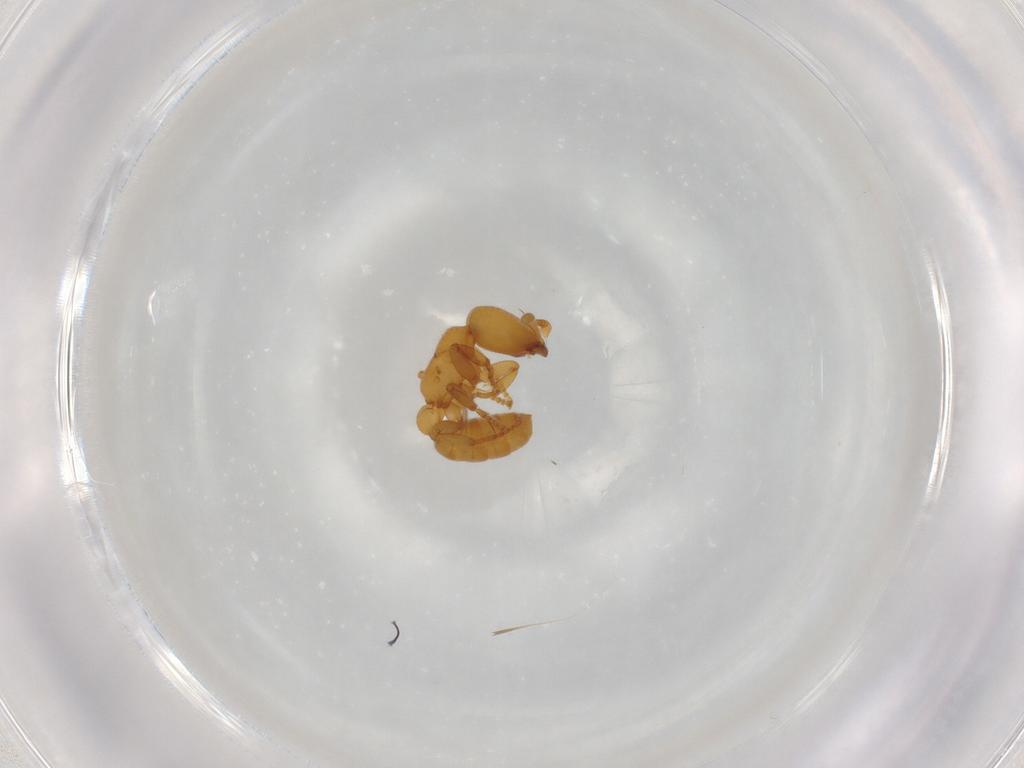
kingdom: Animalia
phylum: Arthropoda
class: Insecta
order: Hymenoptera
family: Formicidae
